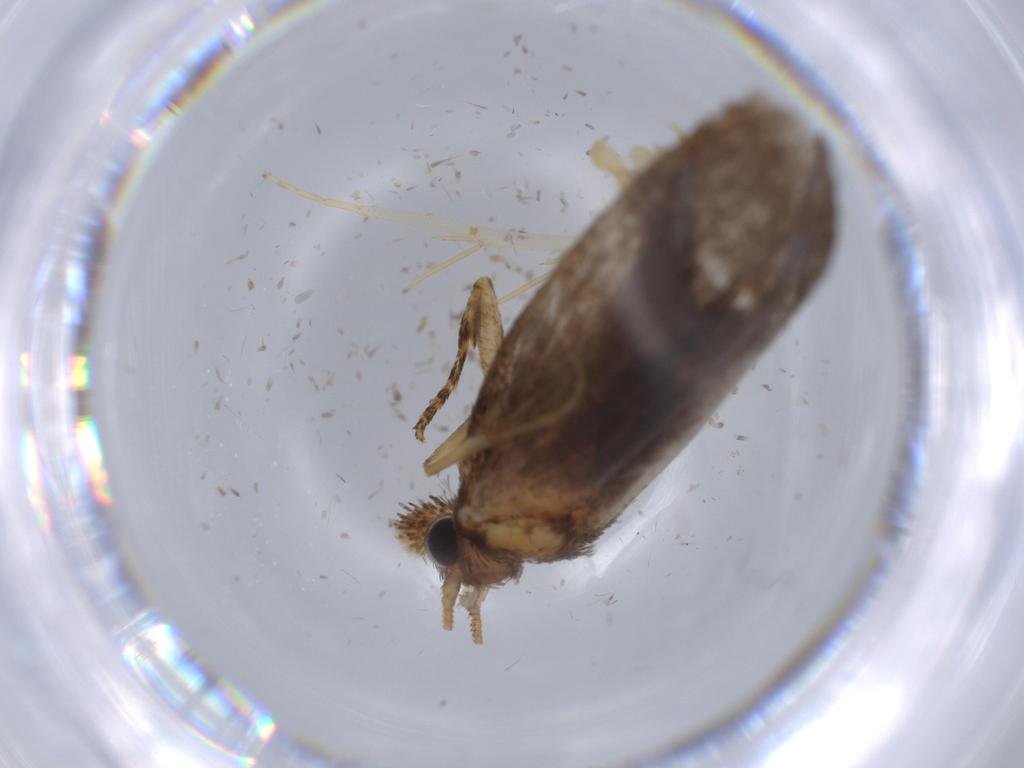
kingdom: Animalia
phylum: Arthropoda
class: Insecta
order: Lepidoptera
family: Tineidae
